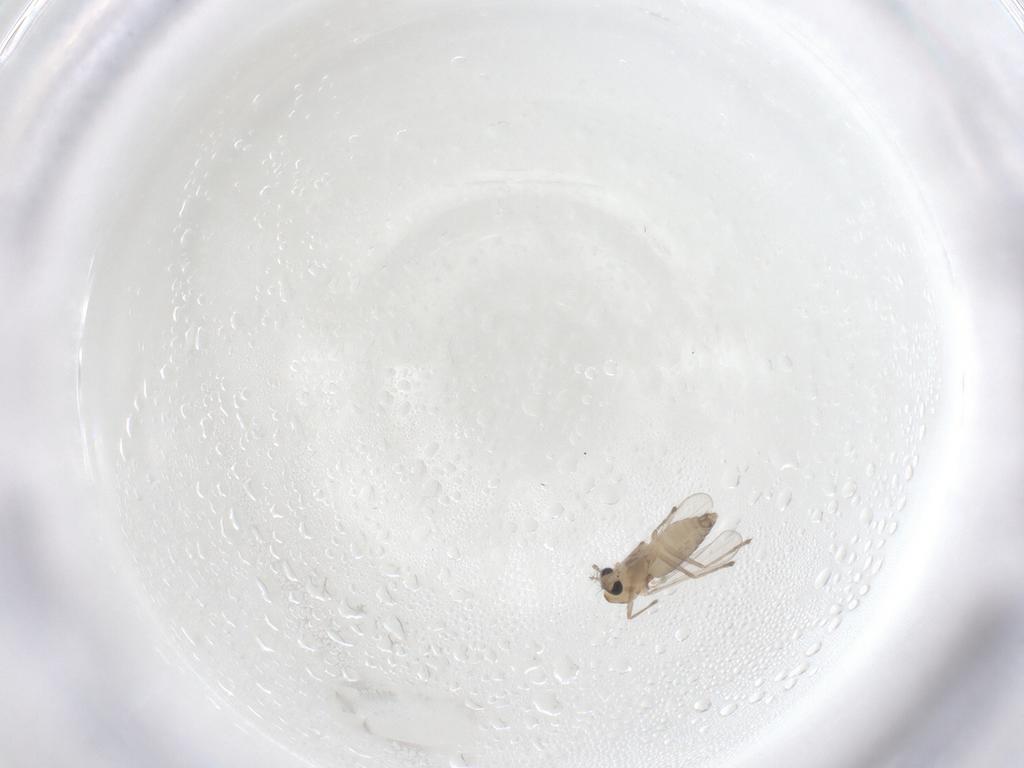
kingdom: Animalia
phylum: Arthropoda
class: Insecta
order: Diptera
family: Chironomidae
